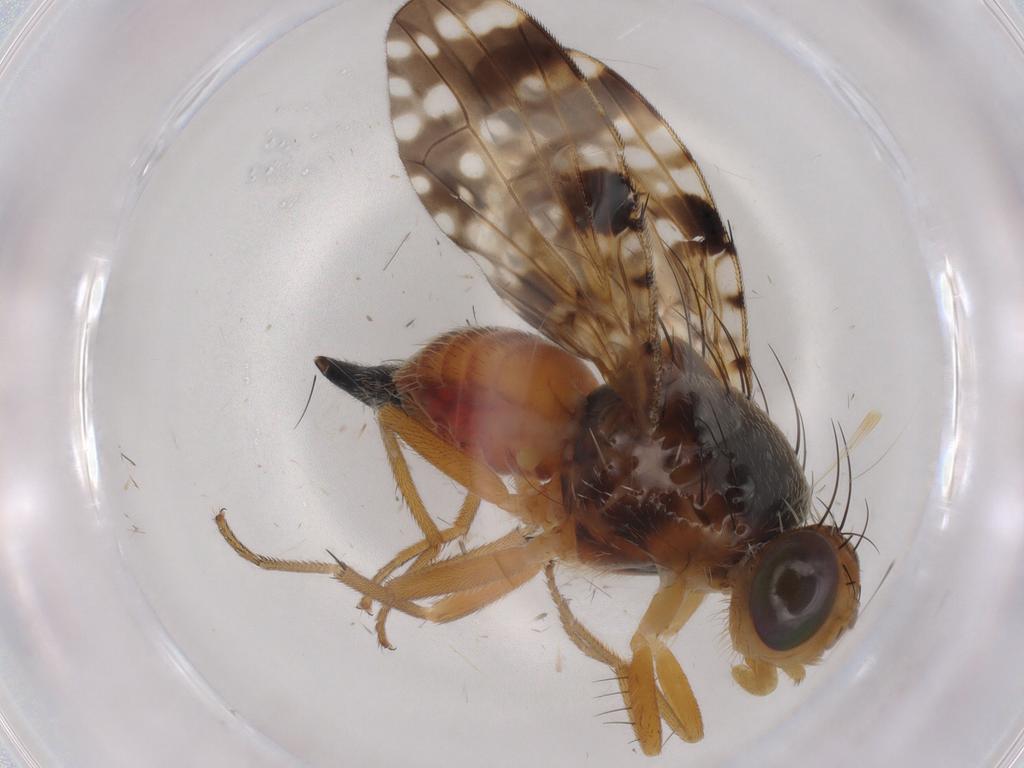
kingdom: Animalia
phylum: Arthropoda
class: Insecta
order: Diptera
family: Tephritidae
